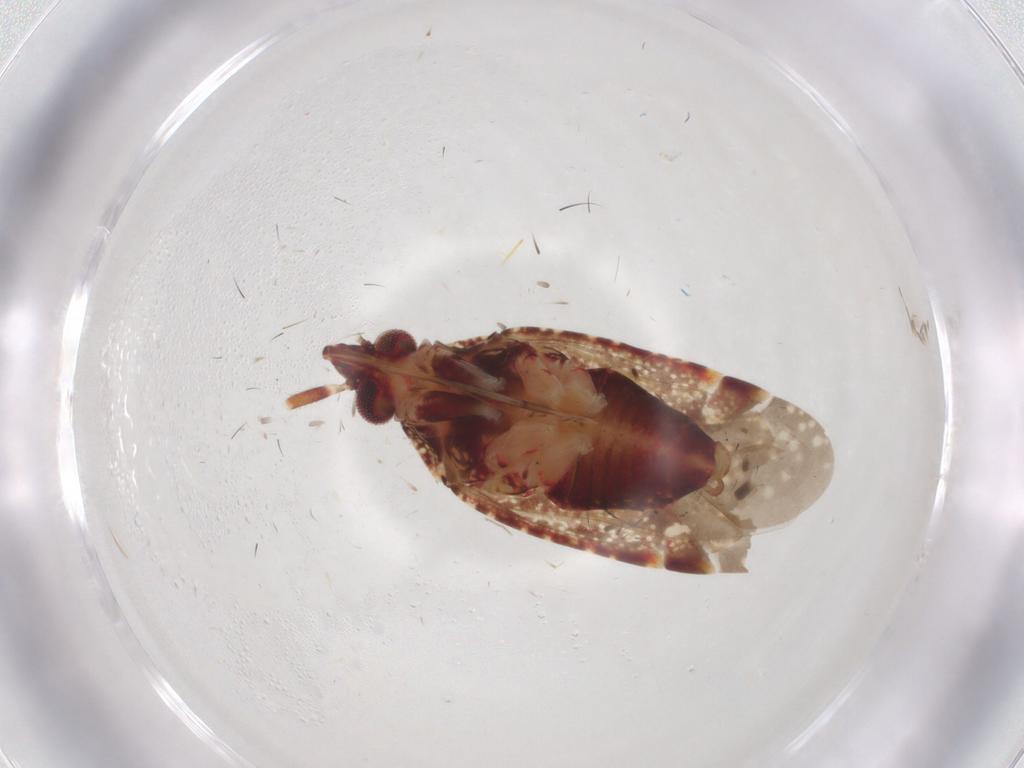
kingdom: Animalia
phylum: Arthropoda
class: Insecta
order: Hemiptera
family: Miridae
